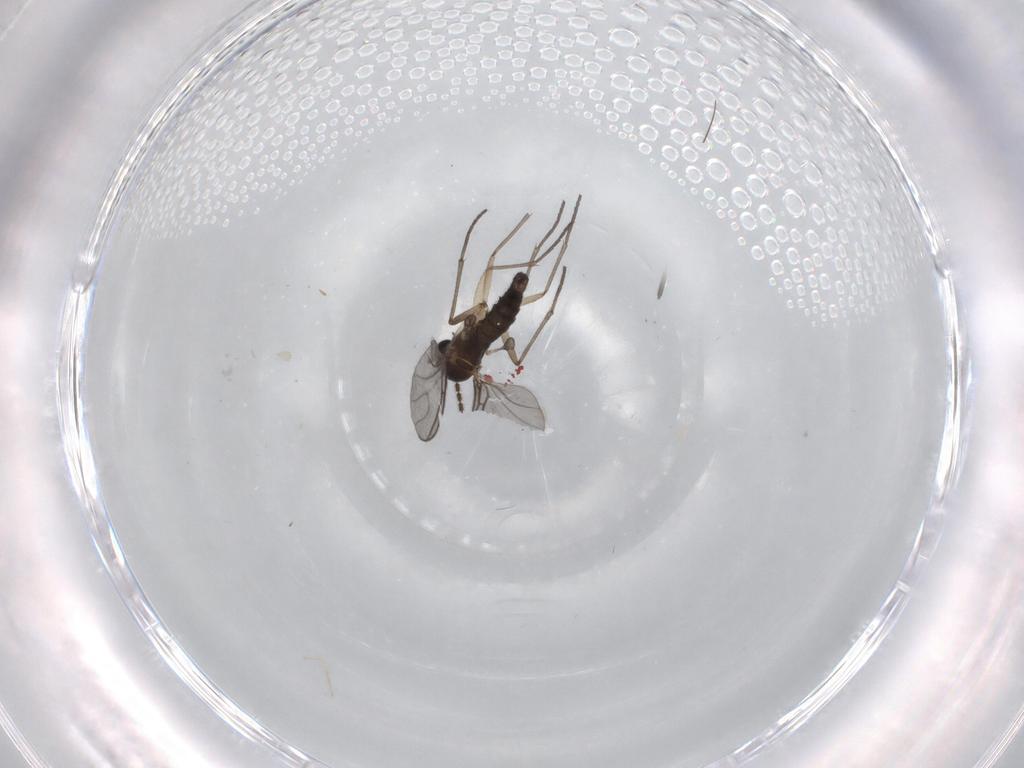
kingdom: Animalia
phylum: Arthropoda
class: Insecta
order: Diptera
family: Sciaridae
